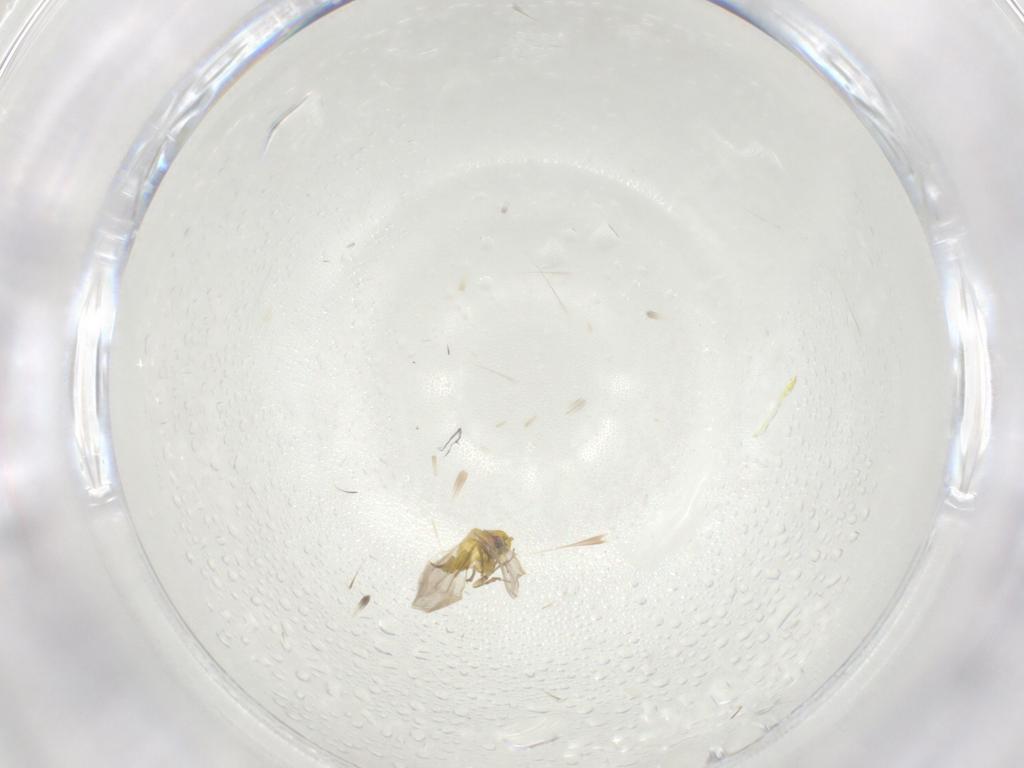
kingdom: Animalia
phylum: Arthropoda
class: Insecta
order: Hemiptera
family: Aleyrodidae
